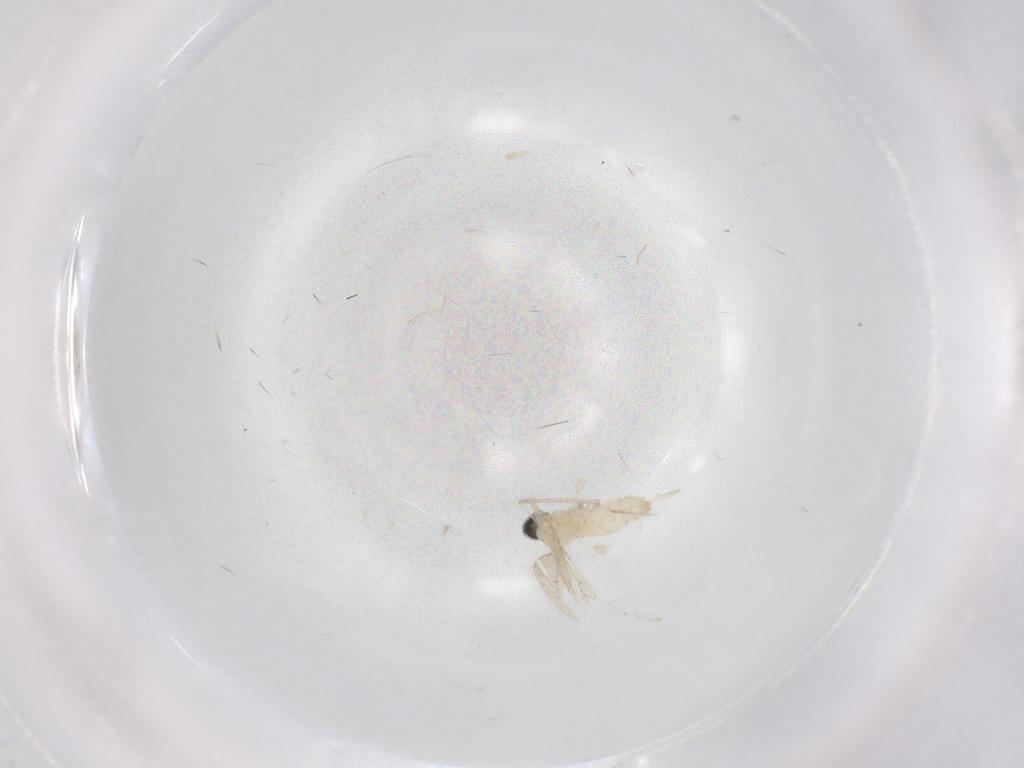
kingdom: Animalia
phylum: Arthropoda
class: Insecta
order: Diptera
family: Cecidomyiidae
